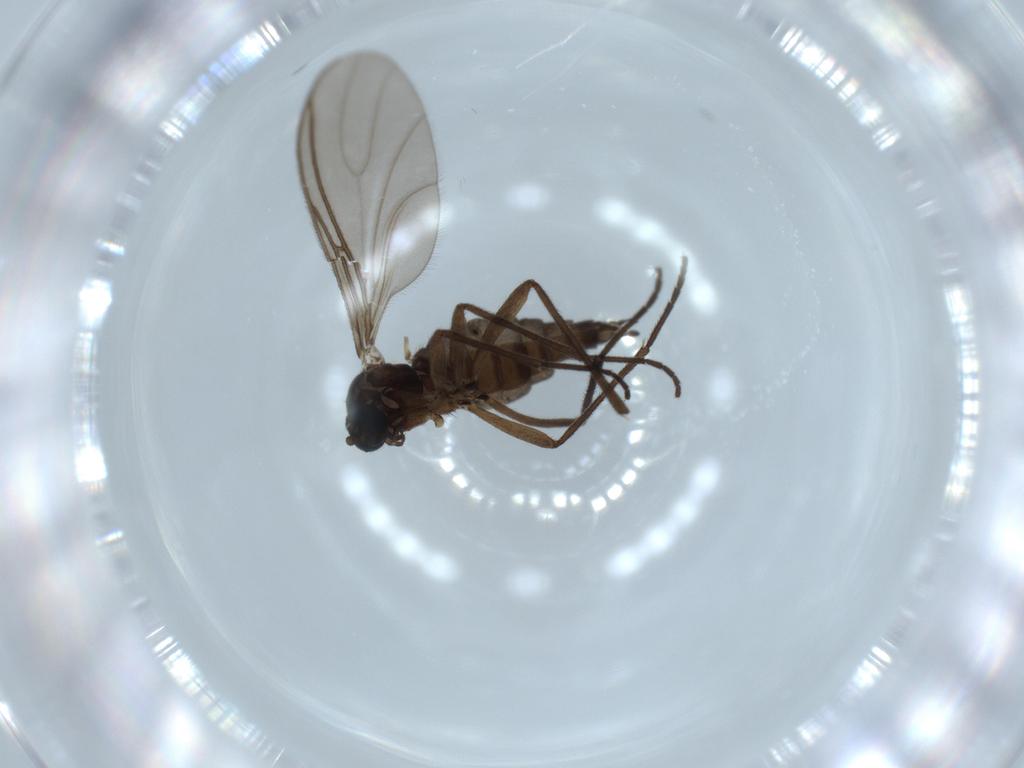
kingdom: Animalia
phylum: Arthropoda
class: Insecta
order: Diptera
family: Sciaridae
